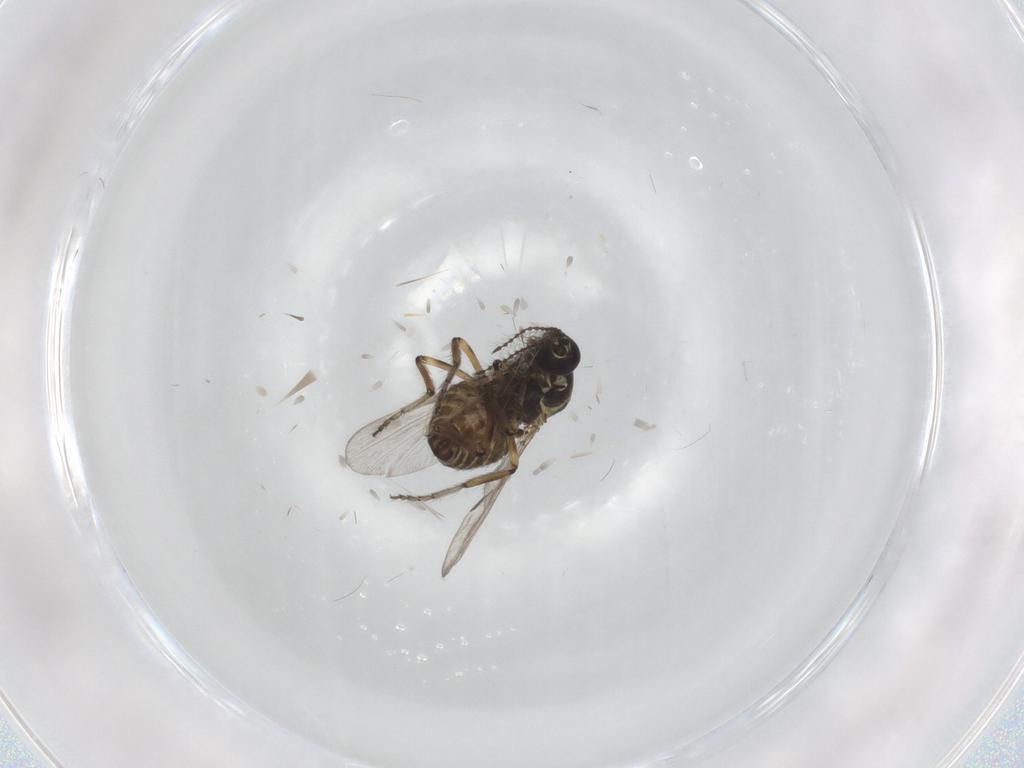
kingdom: Animalia
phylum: Arthropoda
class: Insecta
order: Diptera
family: Ceratopogonidae
